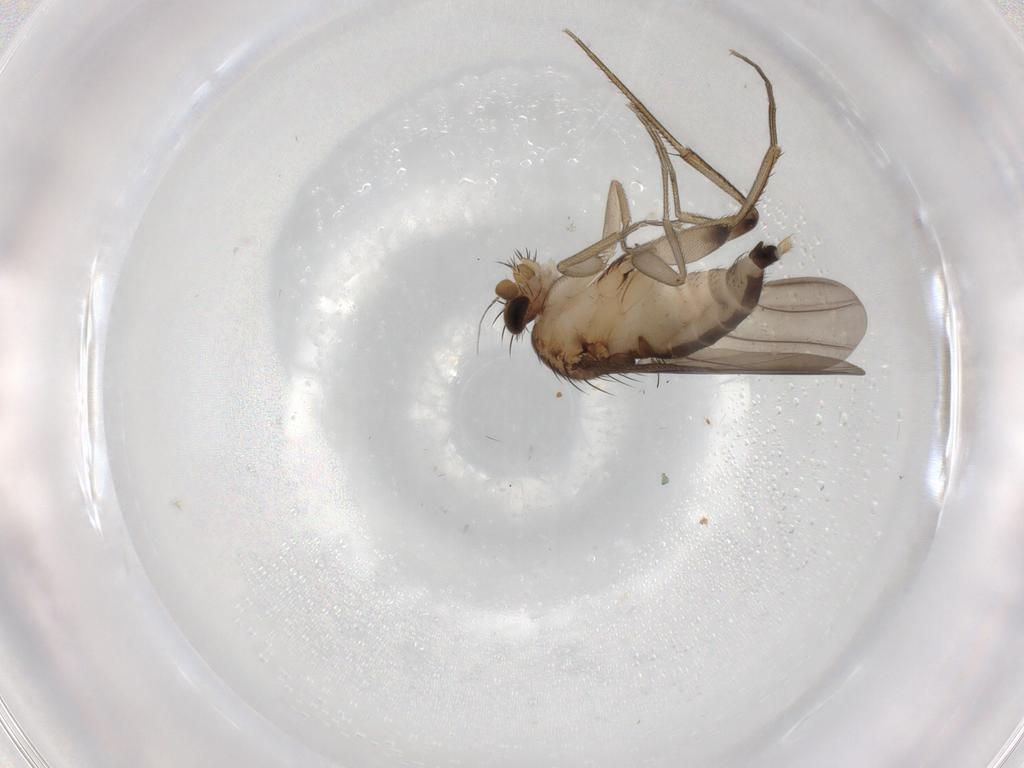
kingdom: Animalia
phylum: Arthropoda
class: Insecta
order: Diptera
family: Phoridae
